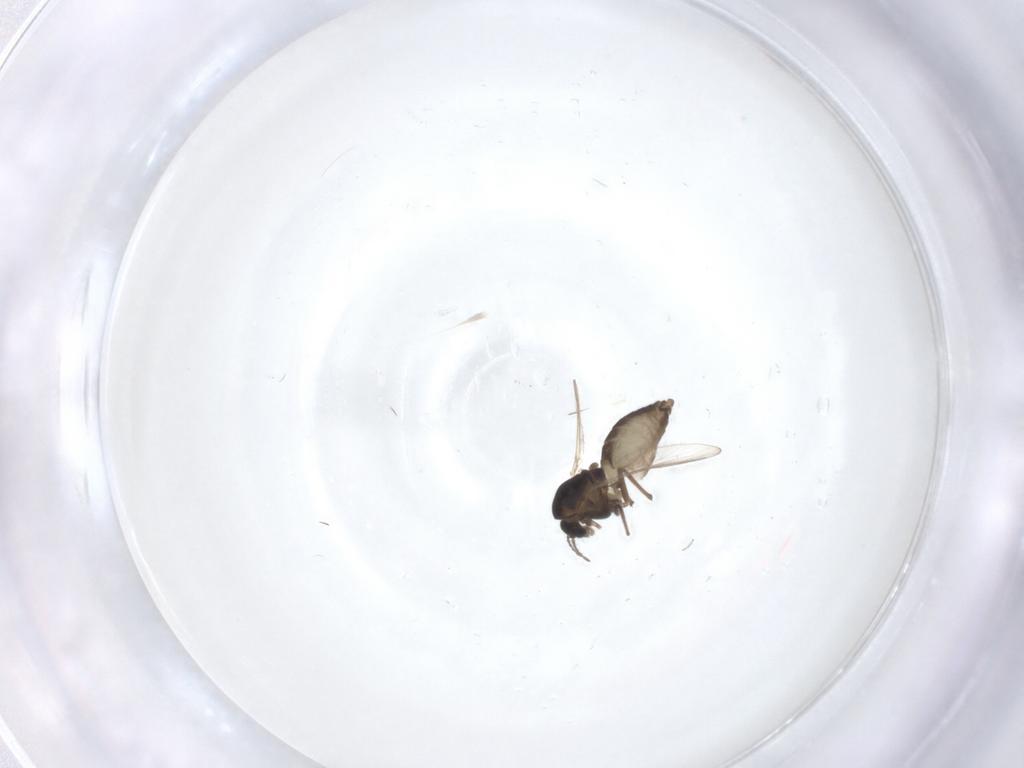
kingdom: Animalia
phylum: Arthropoda
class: Insecta
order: Diptera
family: Chironomidae
